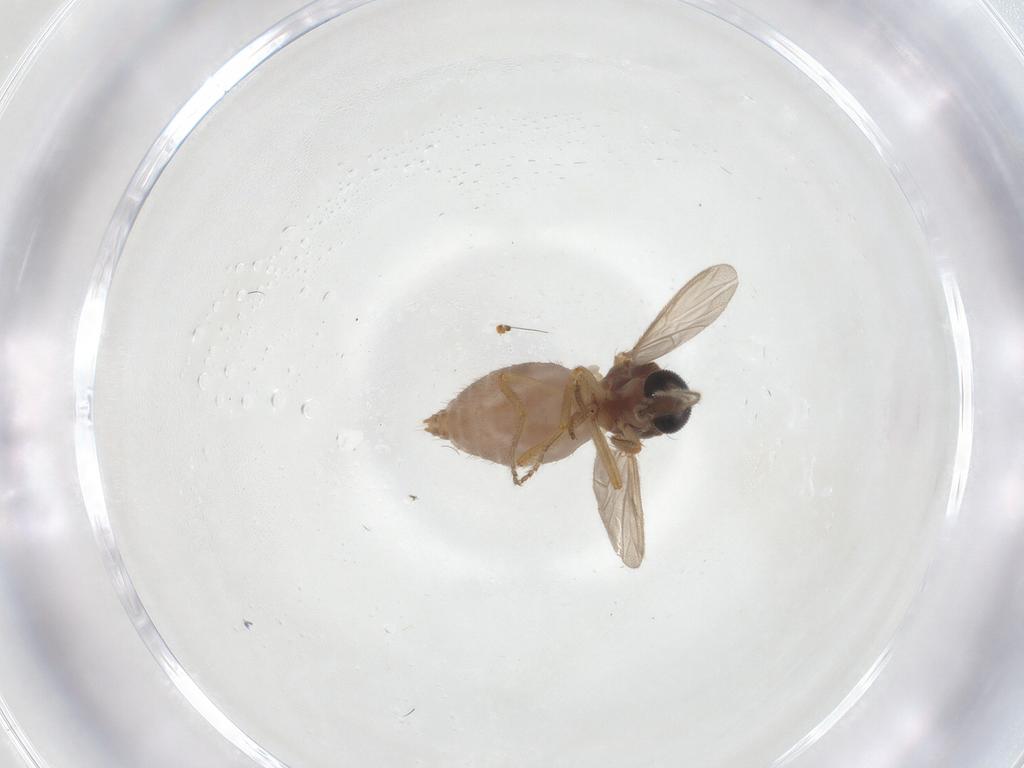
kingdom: Animalia
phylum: Arthropoda
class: Insecta
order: Diptera
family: Ceratopogonidae
